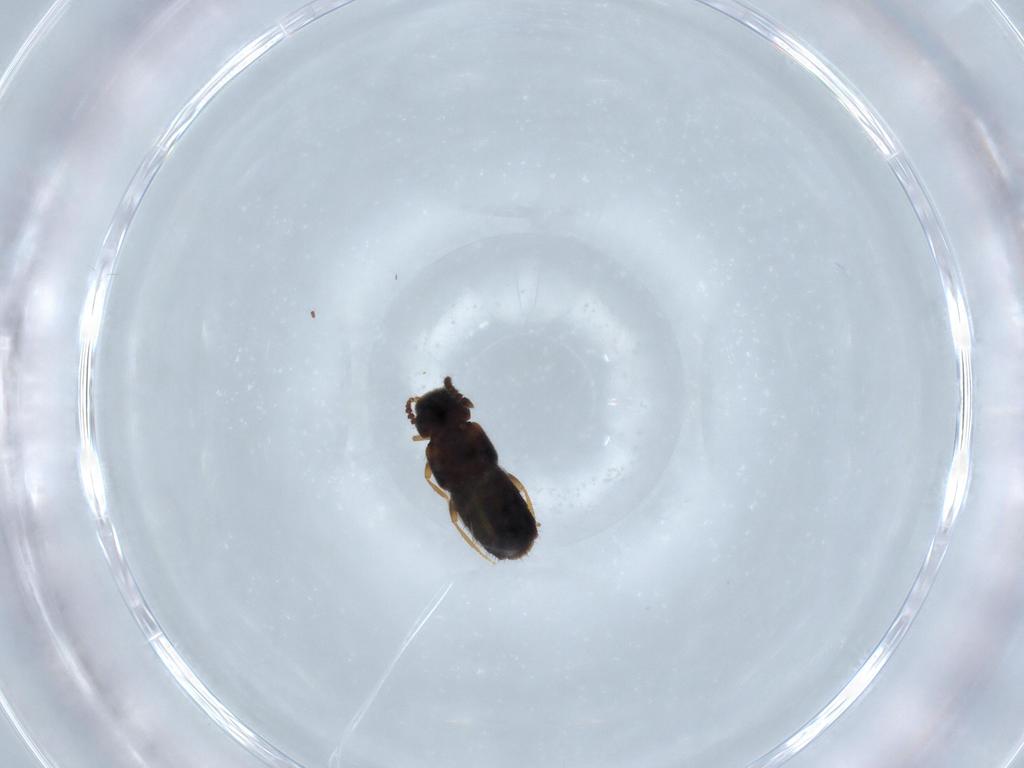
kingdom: Animalia
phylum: Arthropoda
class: Insecta
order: Coleoptera
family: Staphylinidae
